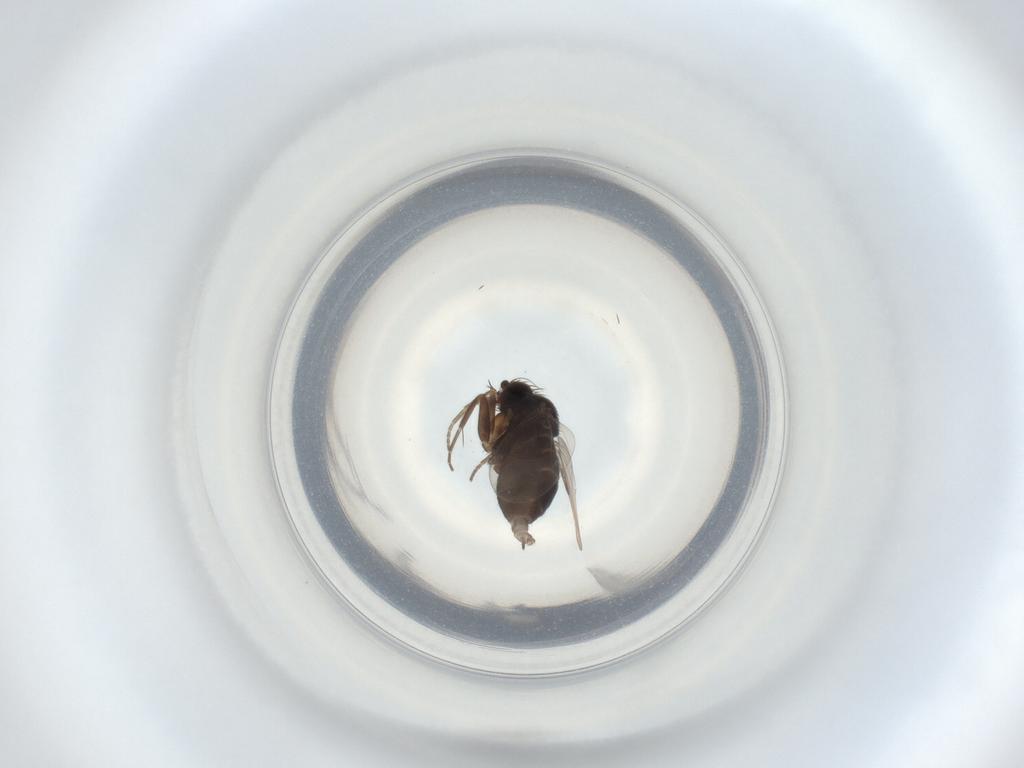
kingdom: Animalia
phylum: Arthropoda
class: Insecta
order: Diptera
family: Phoridae
